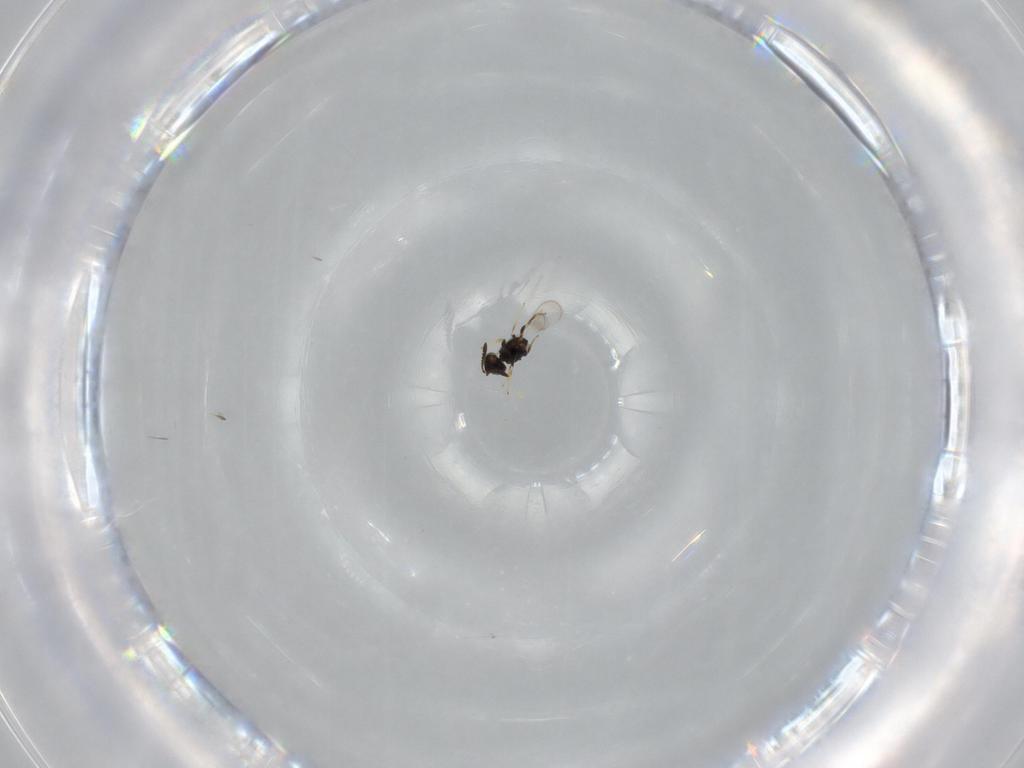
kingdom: Animalia
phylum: Arthropoda
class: Insecta
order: Hymenoptera
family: Ceraphronidae
